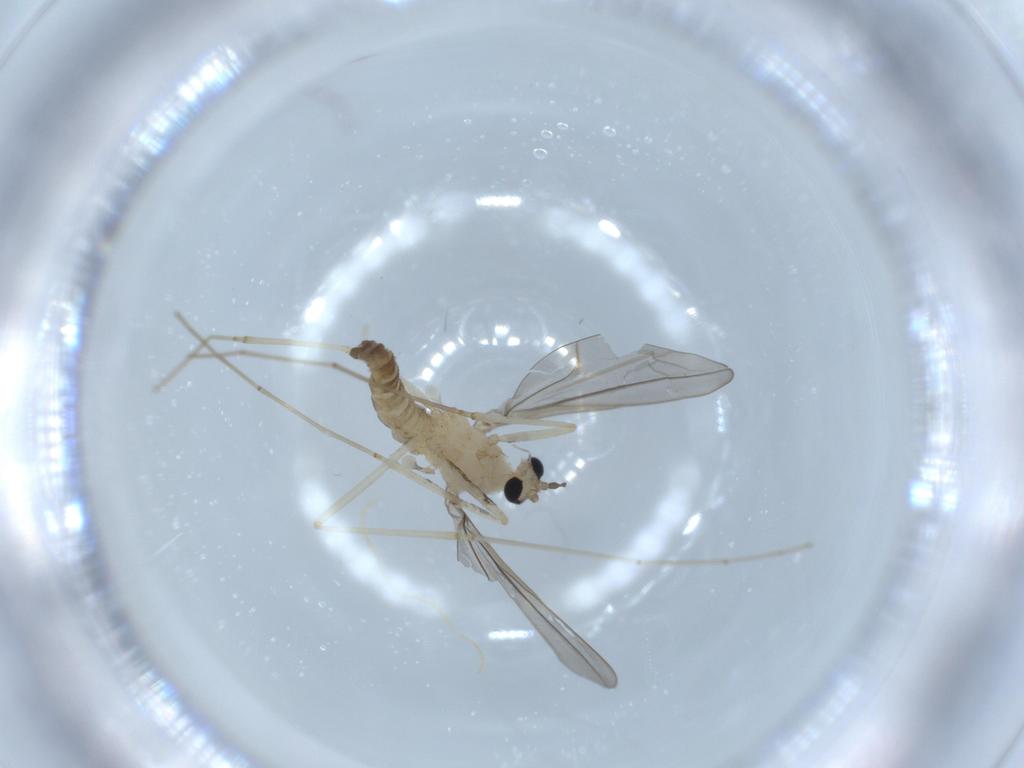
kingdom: Animalia
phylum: Arthropoda
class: Insecta
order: Diptera
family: Cecidomyiidae
